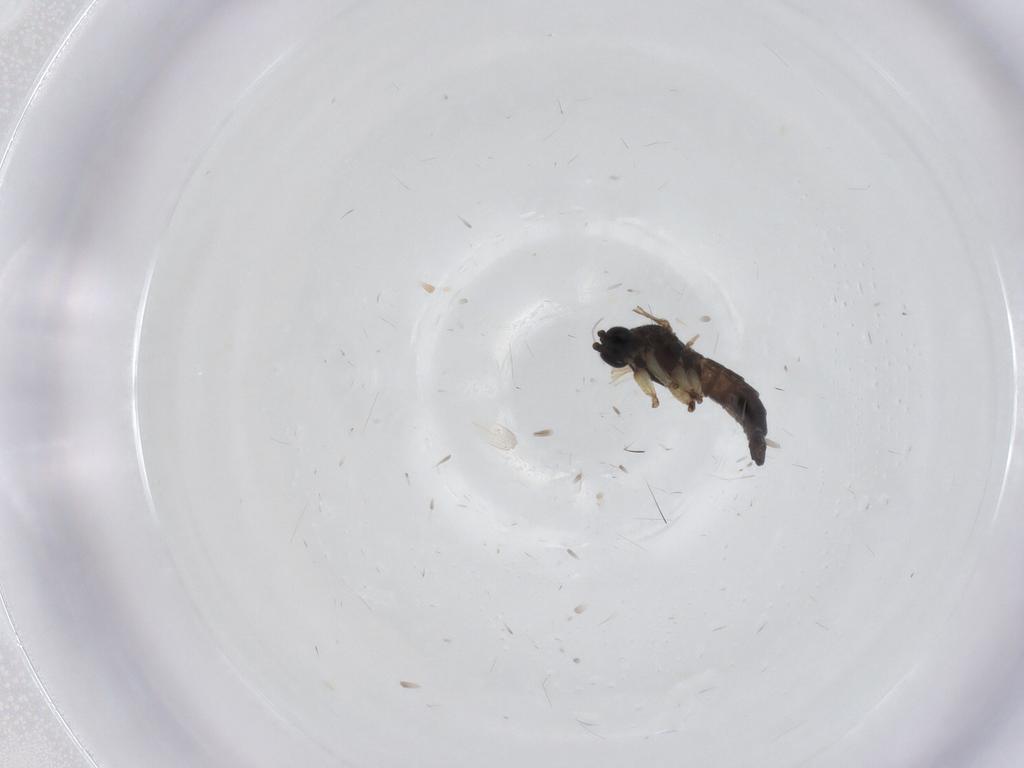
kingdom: Animalia
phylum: Arthropoda
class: Insecta
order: Diptera
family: Sciaridae
